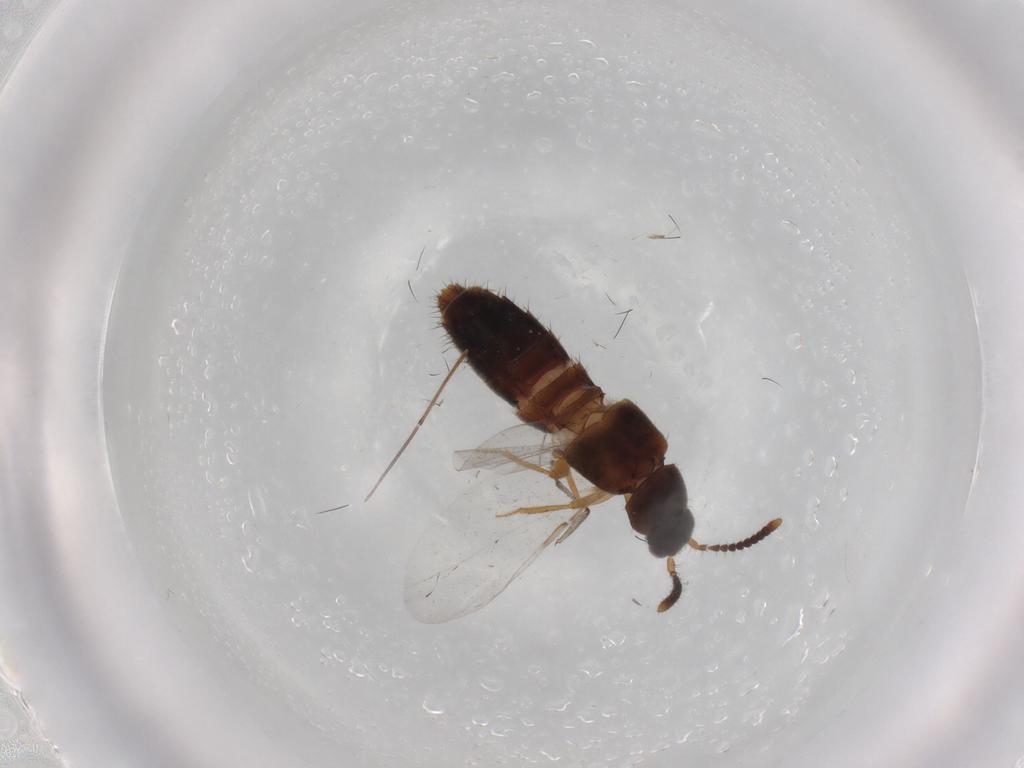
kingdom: Animalia
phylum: Arthropoda
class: Insecta
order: Coleoptera
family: Staphylinidae
